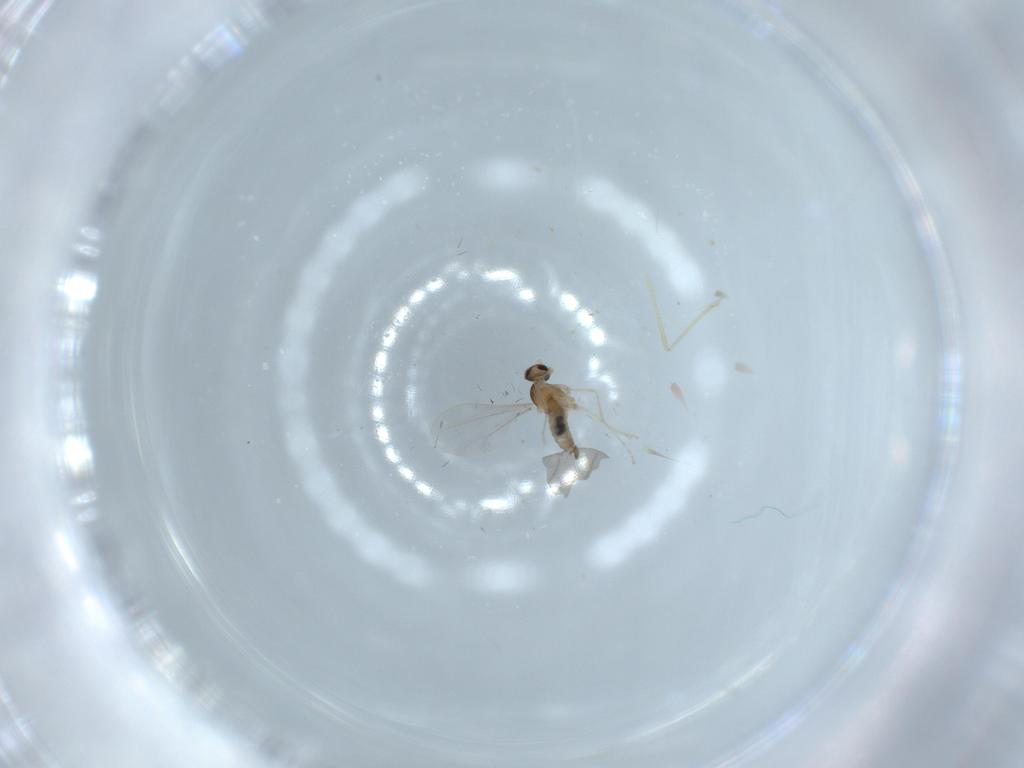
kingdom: Animalia
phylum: Arthropoda
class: Insecta
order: Diptera
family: Cecidomyiidae
